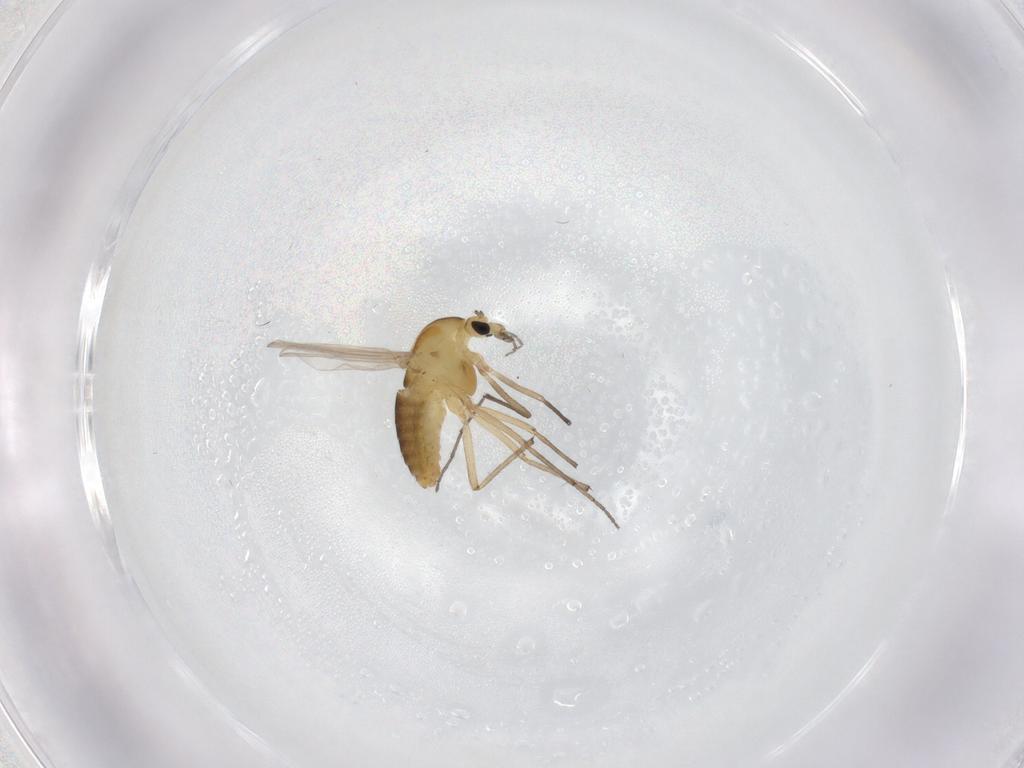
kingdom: Animalia
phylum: Arthropoda
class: Insecta
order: Diptera
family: Chironomidae
